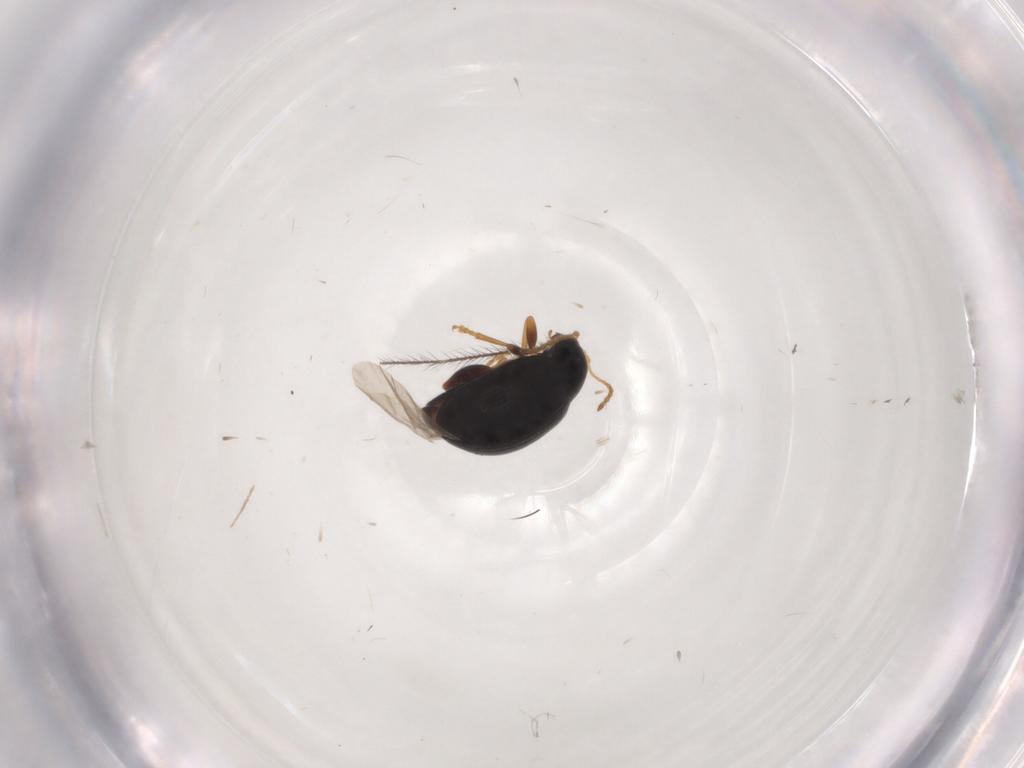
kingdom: Animalia
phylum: Arthropoda
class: Insecta
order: Coleoptera
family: Chrysomelidae
